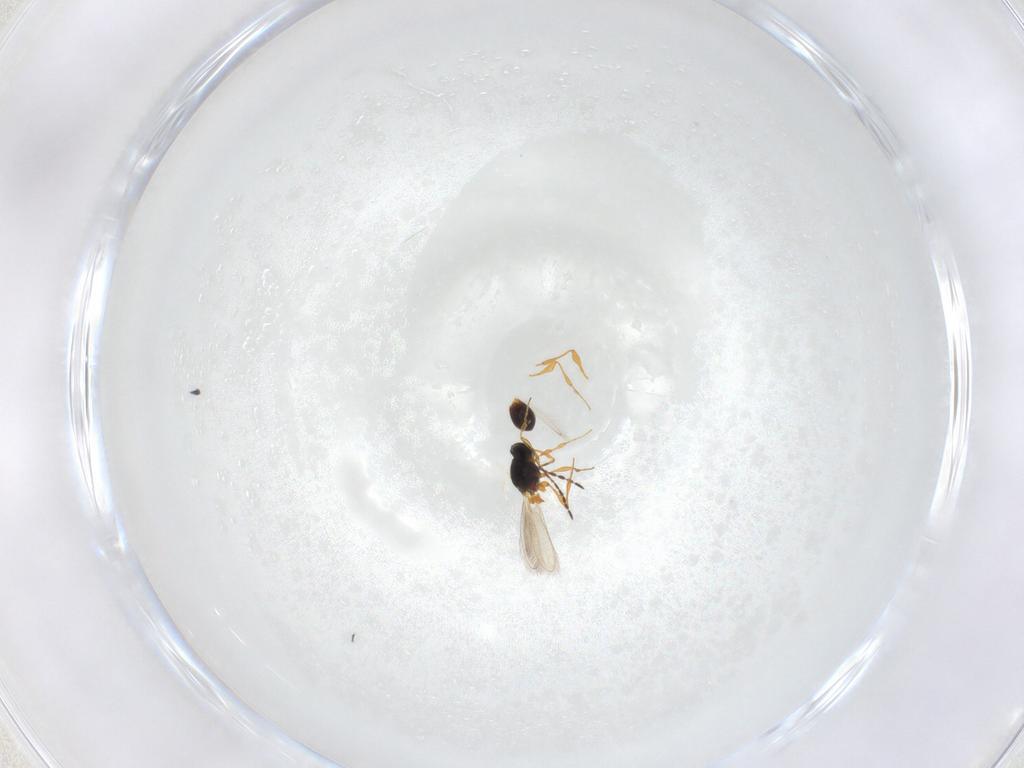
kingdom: Animalia
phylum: Arthropoda
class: Insecta
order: Hymenoptera
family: Platygastridae
